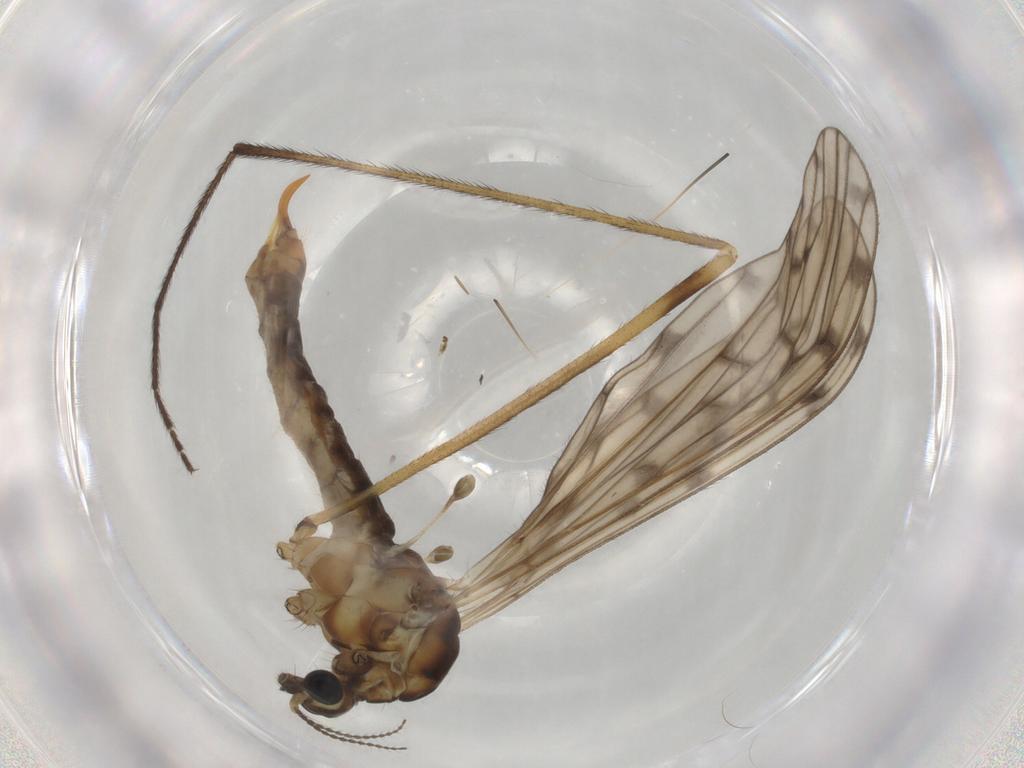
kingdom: Animalia
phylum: Arthropoda
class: Insecta
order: Diptera
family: Limoniidae
